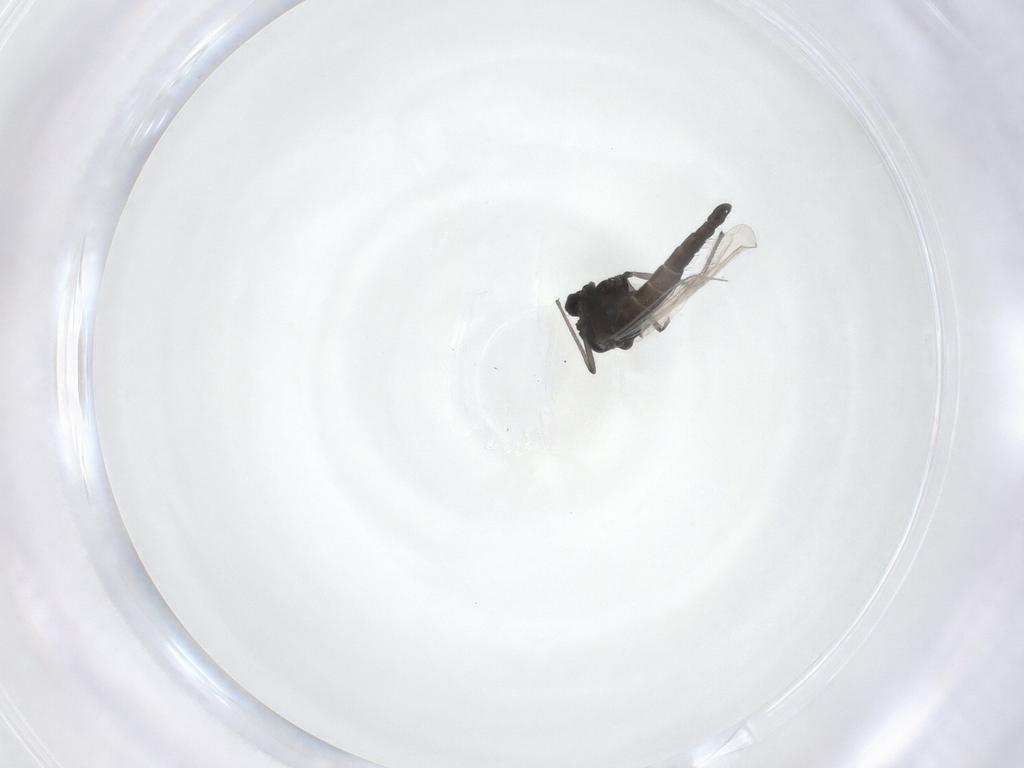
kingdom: Animalia
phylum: Arthropoda
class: Insecta
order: Diptera
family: Chironomidae
